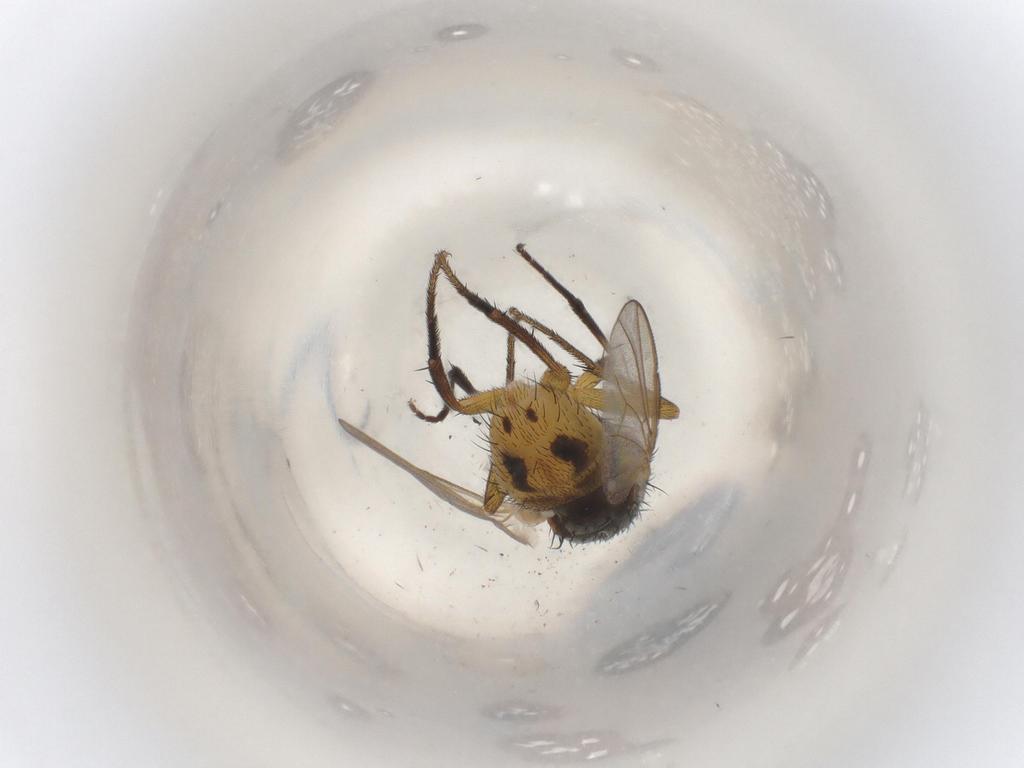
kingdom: Animalia
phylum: Arthropoda
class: Insecta
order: Diptera
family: Muscidae
